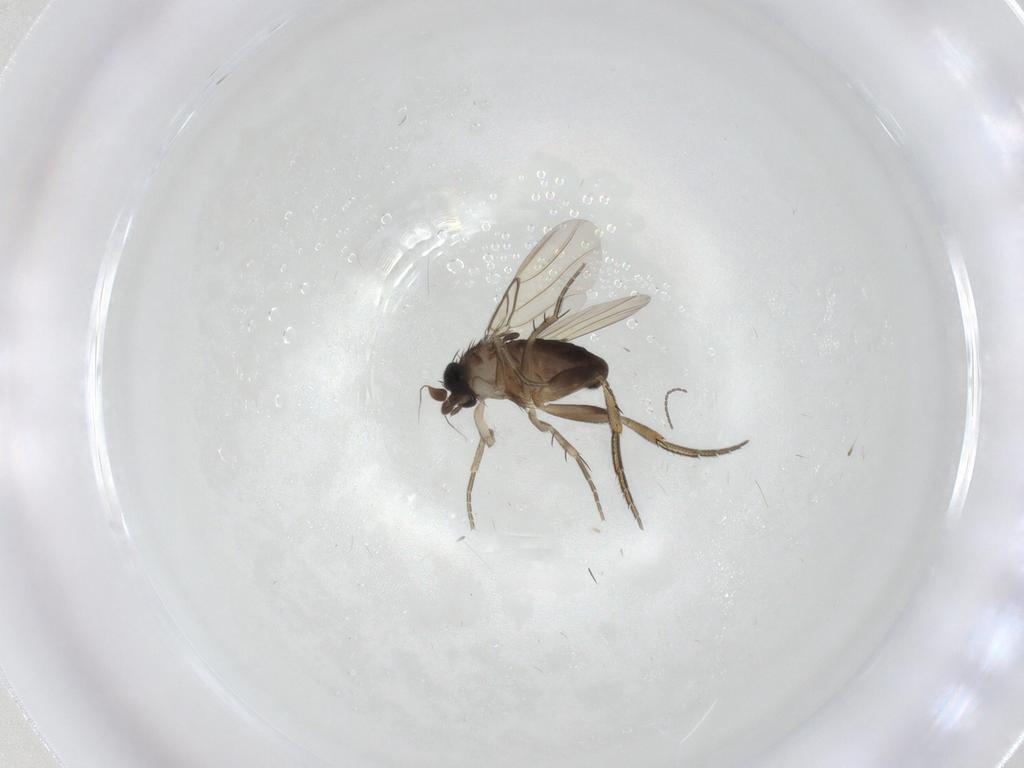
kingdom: Animalia
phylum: Arthropoda
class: Insecta
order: Diptera
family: Phoridae
